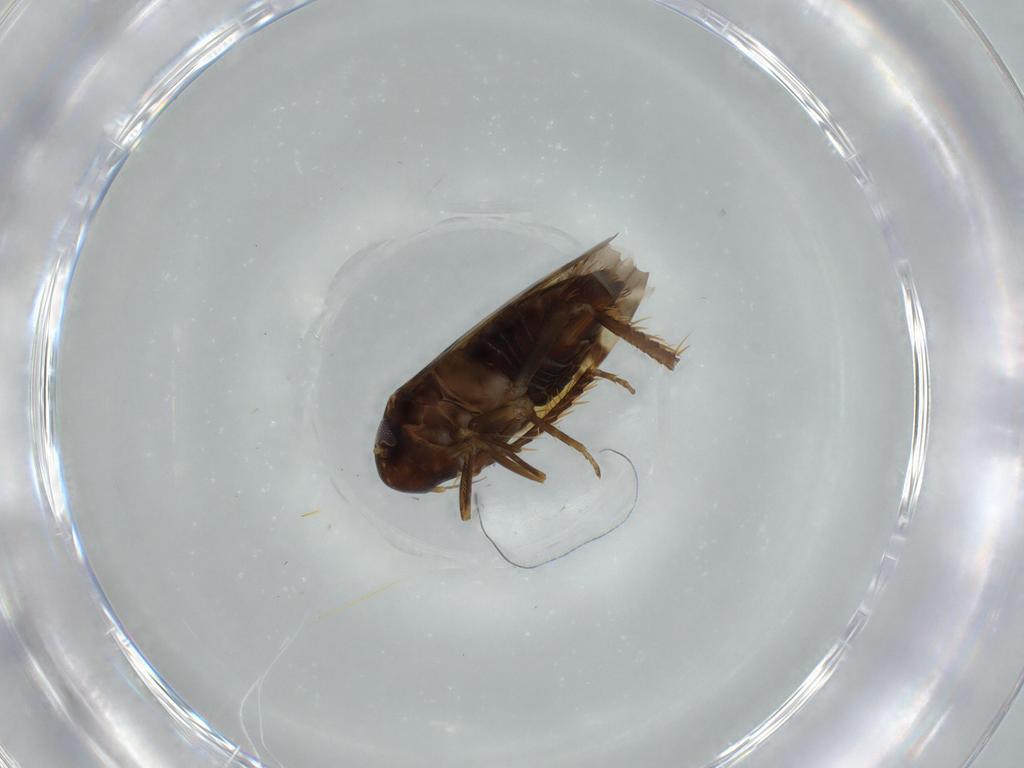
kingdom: Animalia
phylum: Arthropoda
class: Insecta
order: Hemiptera
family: Cicadellidae
